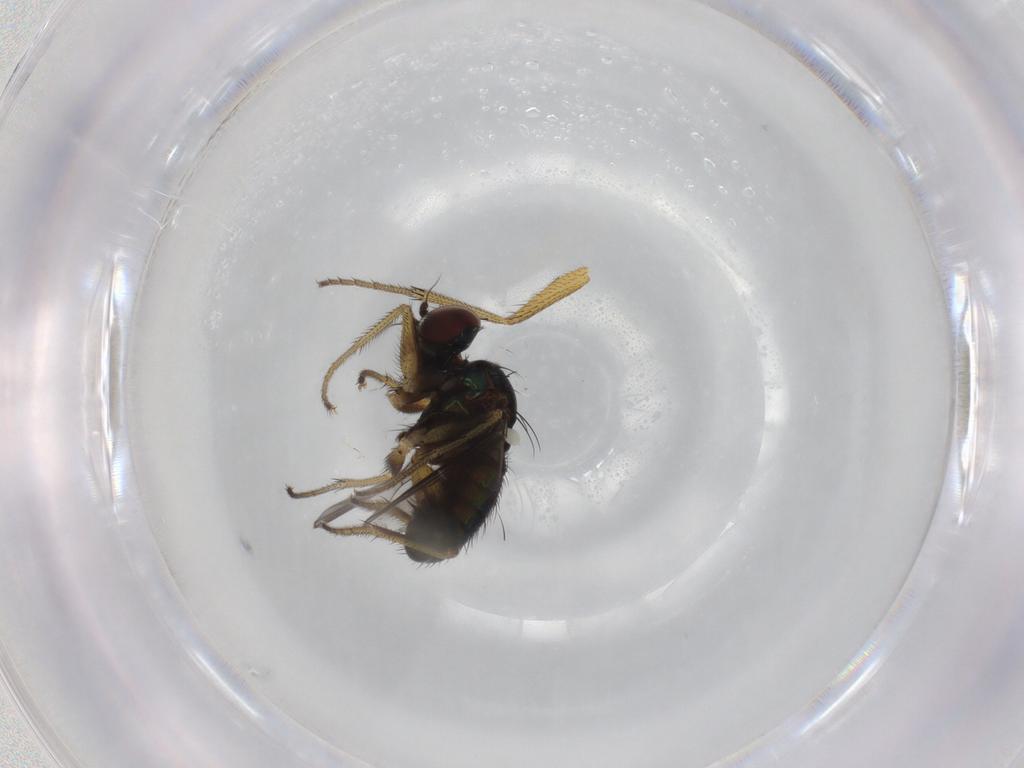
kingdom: Animalia
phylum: Arthropoda
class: Insecta
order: Diptera
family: Dolichopodidae
